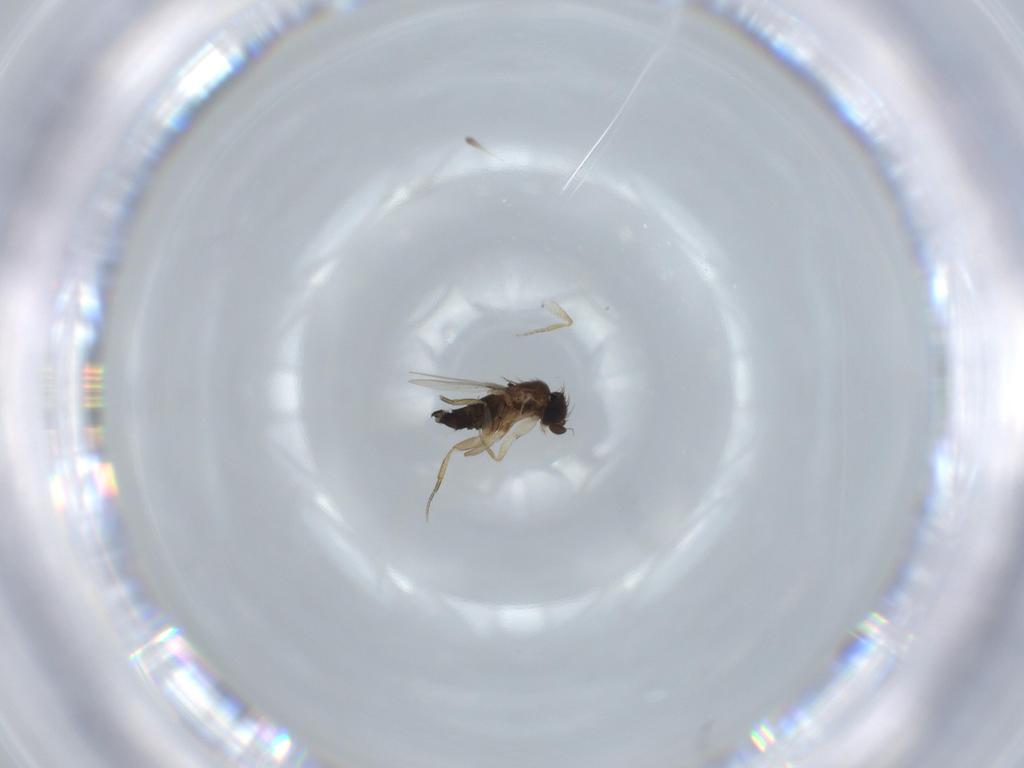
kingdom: Animalia
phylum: Arthropoda
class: Insecta
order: Diptera
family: Phoridae
